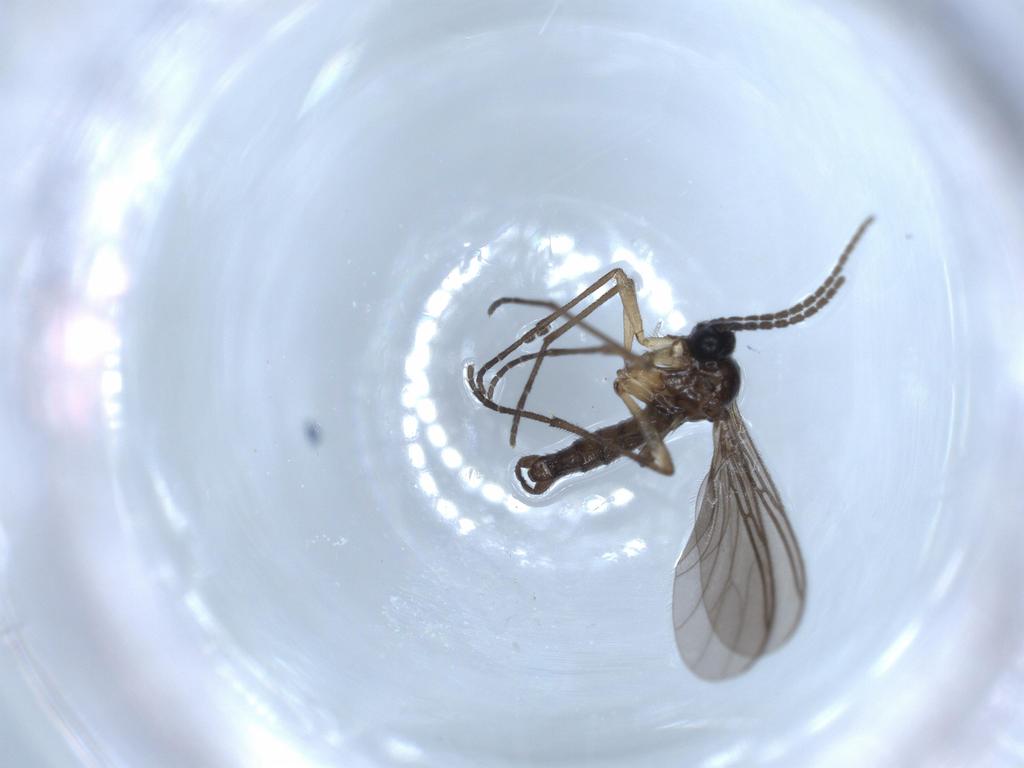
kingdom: Animalia
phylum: Arthropoda
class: Insecta
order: Diptera
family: Sciaridae
